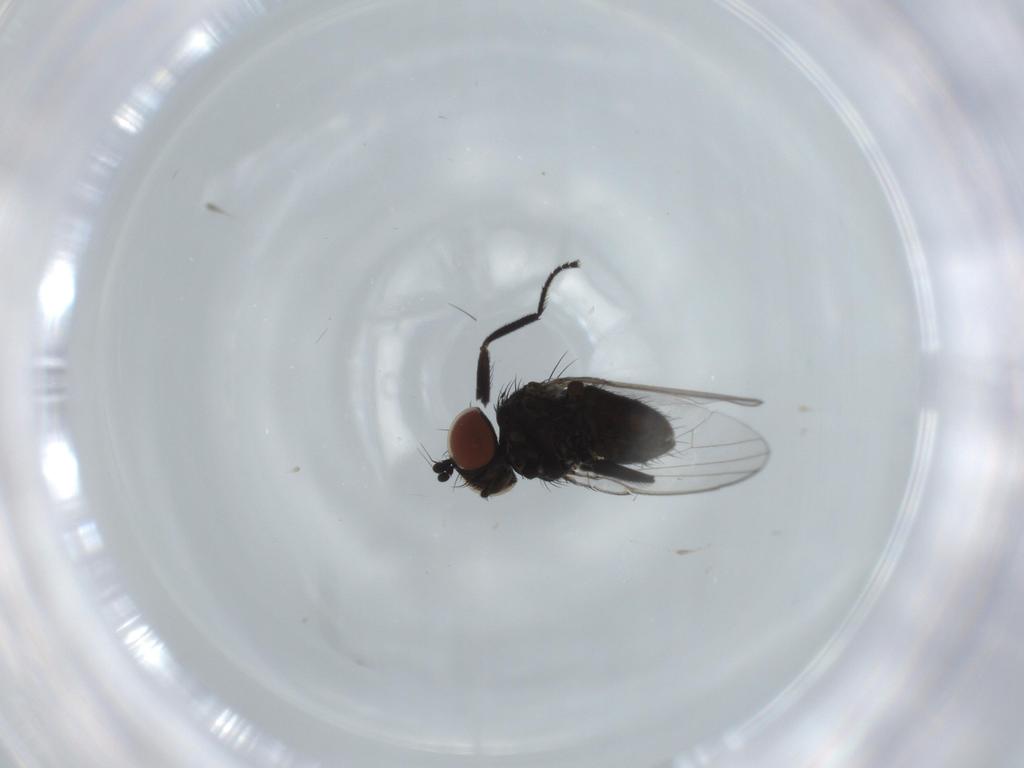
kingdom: Animalia
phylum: Arthropoda
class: Insecta
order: Diptera
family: Milichiidae
